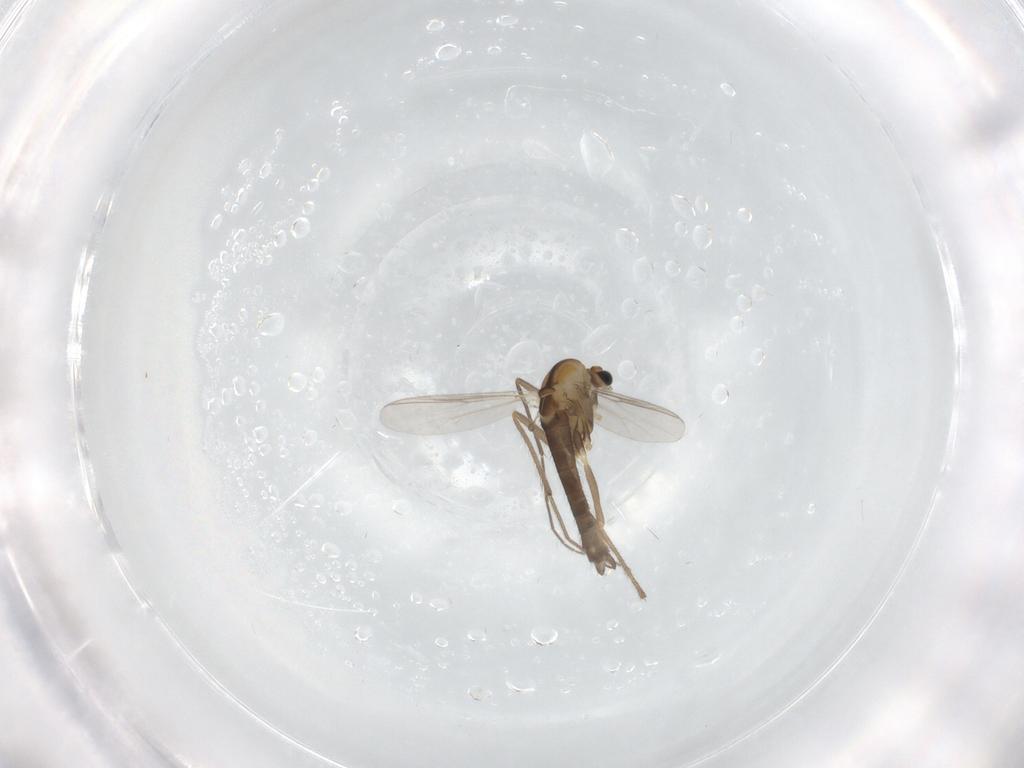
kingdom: Animalia
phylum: Arthropoda
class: Insecta
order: Diptera
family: Chironomidae
